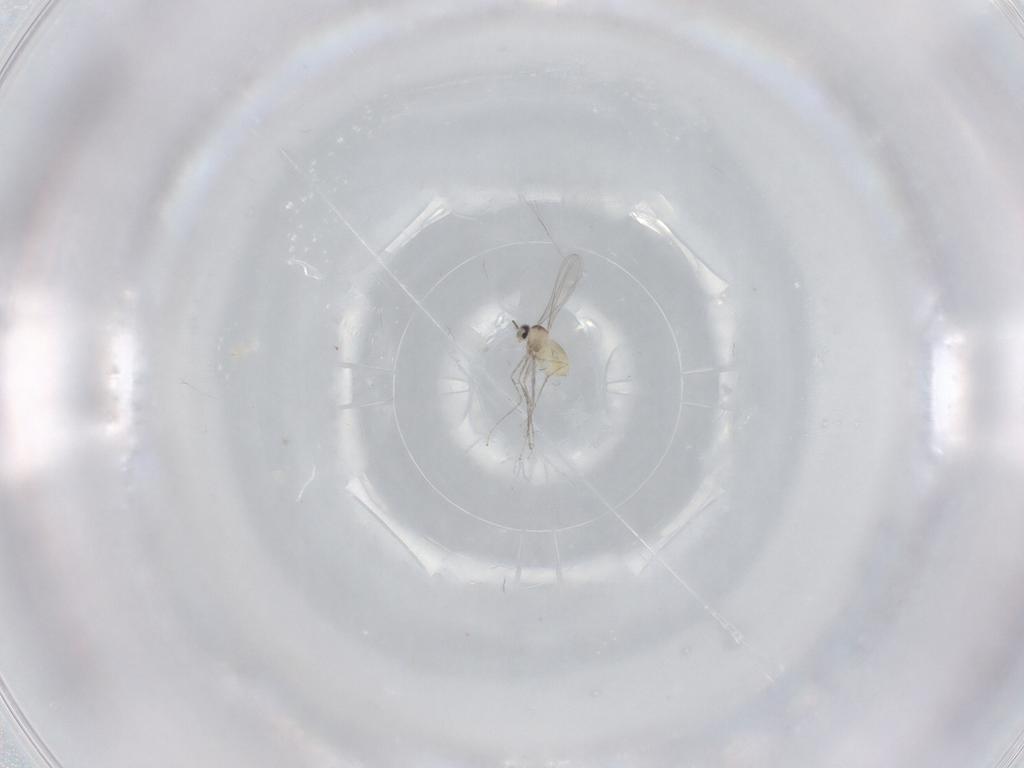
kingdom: Animalia
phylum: Arthropoda
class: Insecta
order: Diptera
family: Cecidomyiidae
